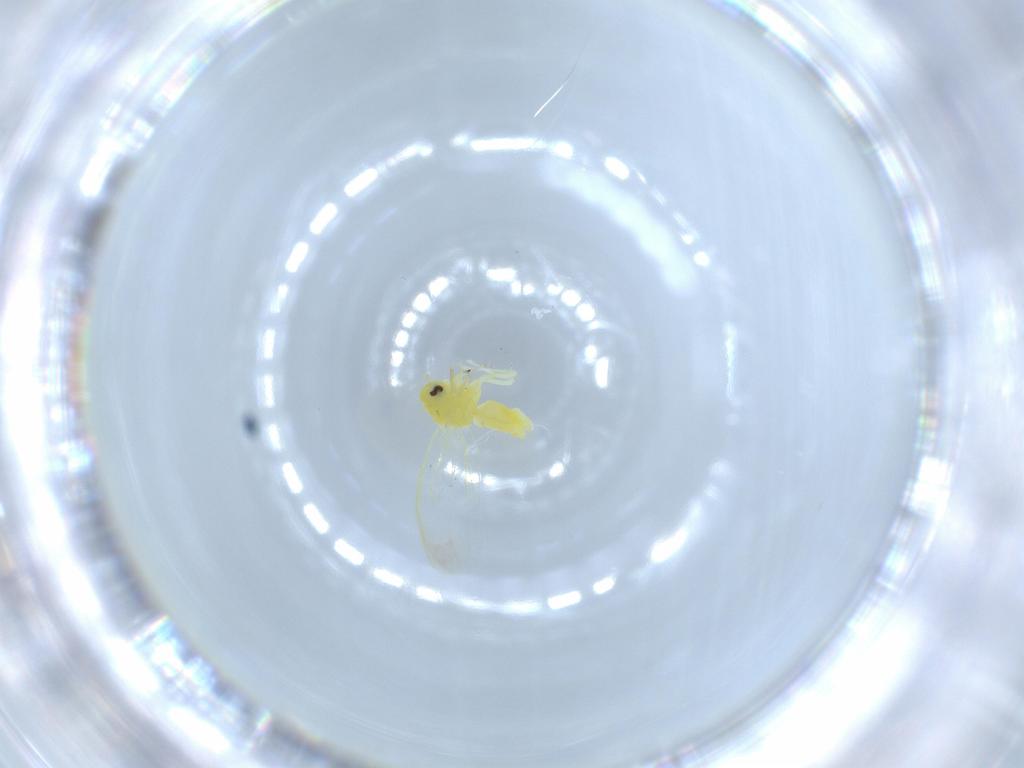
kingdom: Animalia
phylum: Arthropoda
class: Insecta
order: Hemiptera
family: Aleyrodidae
